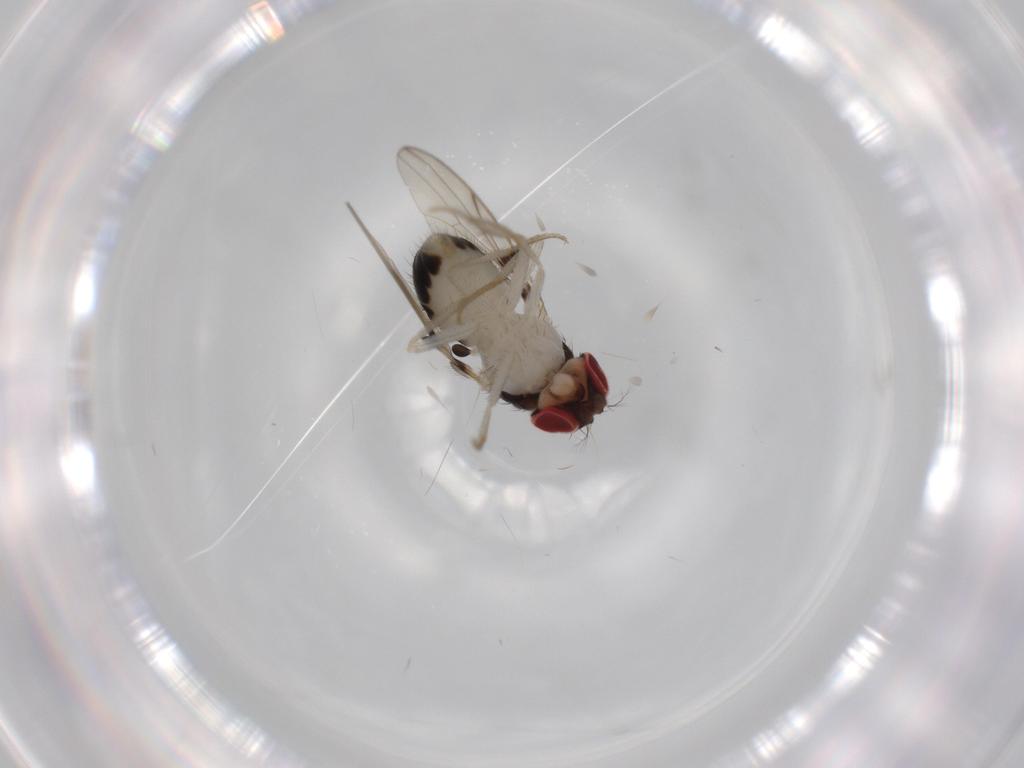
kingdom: Animalia
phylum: Arthropoda
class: Insecta
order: Diptera
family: Drosophilidae
